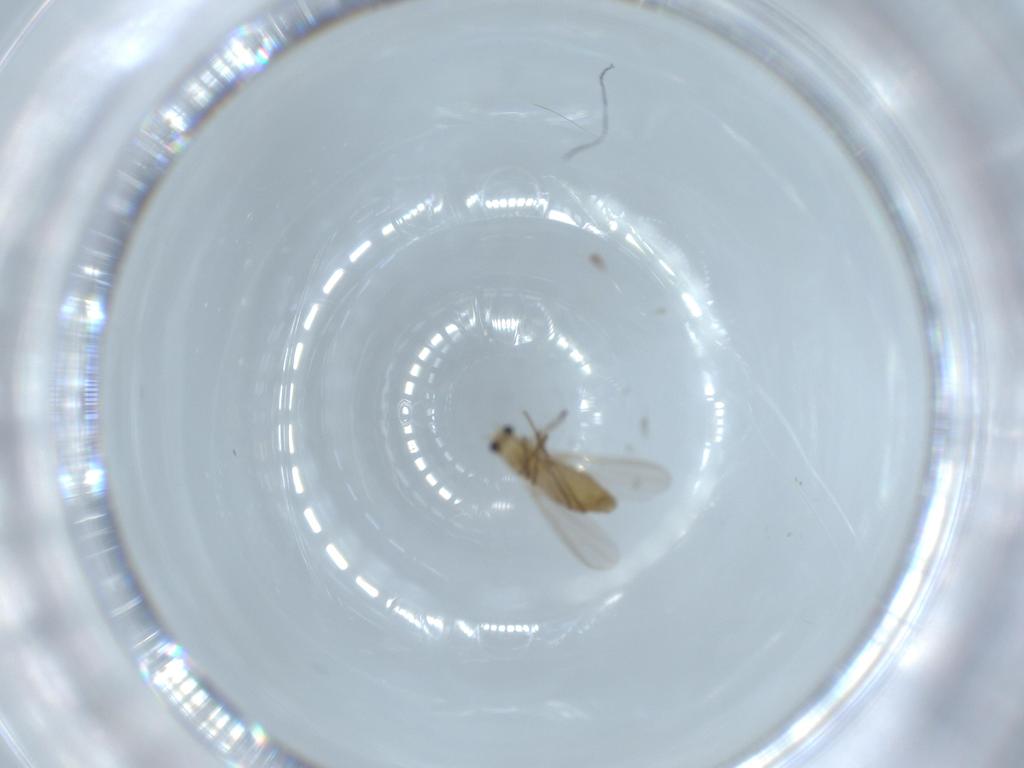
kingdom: Animalia
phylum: Arthropoda
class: Insecta
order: Diptera
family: Chironomidae
